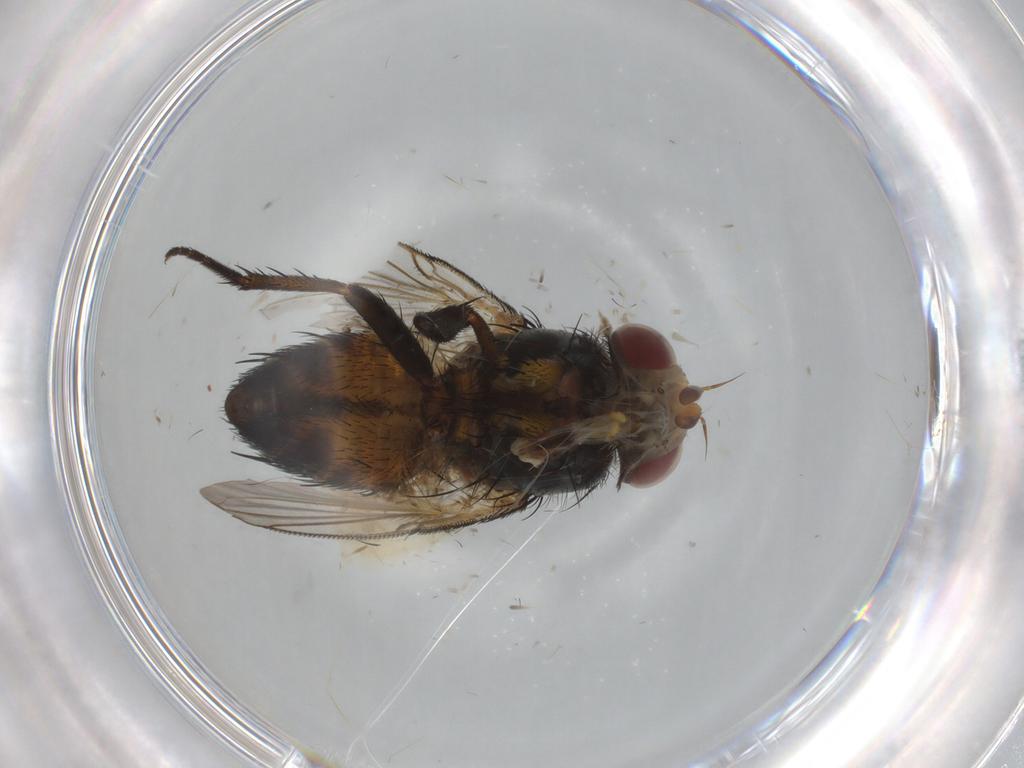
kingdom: Animalia
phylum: Arthropoda
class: Insecta
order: Diptera
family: Tachinidae
